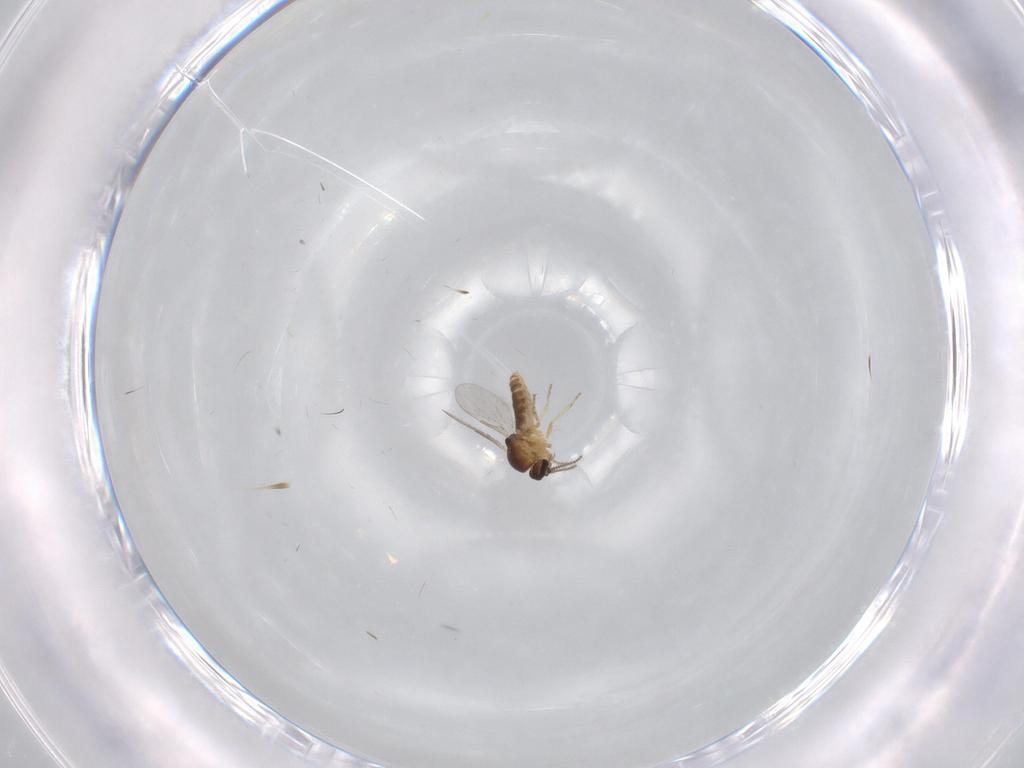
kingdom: Animalia
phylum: Arthropoda
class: Insecta
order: Diptera
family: Ceratopogonidae
